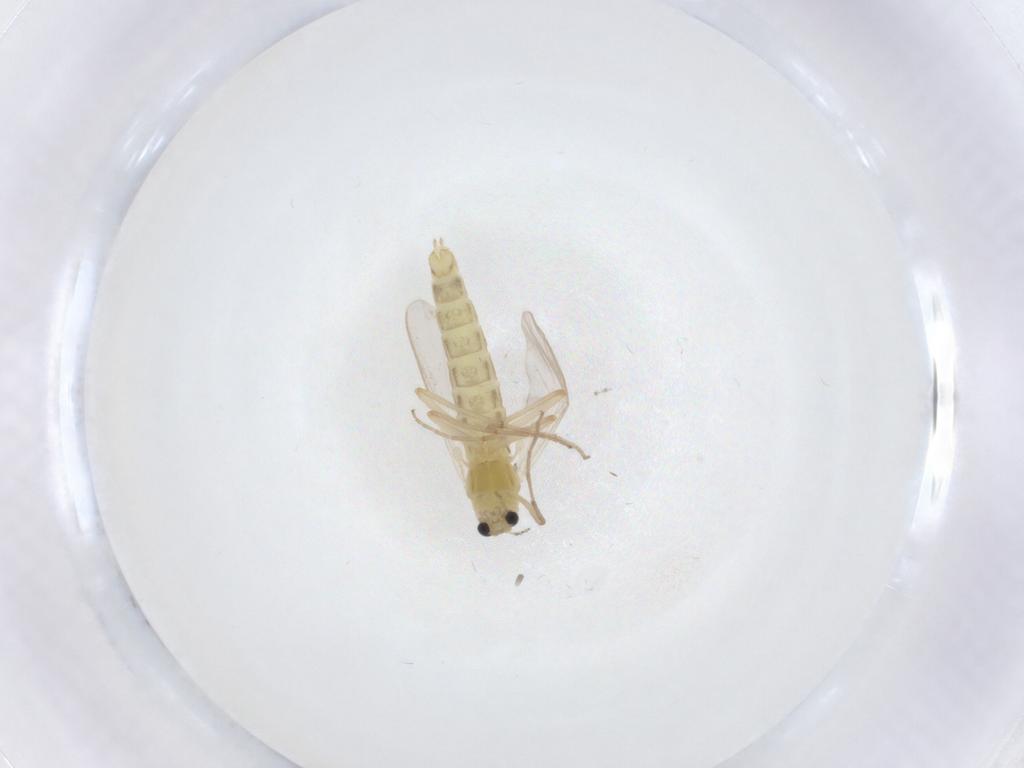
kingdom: Animalia
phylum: Arthropoda
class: Insecta
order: Diptera
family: Chironomidae
